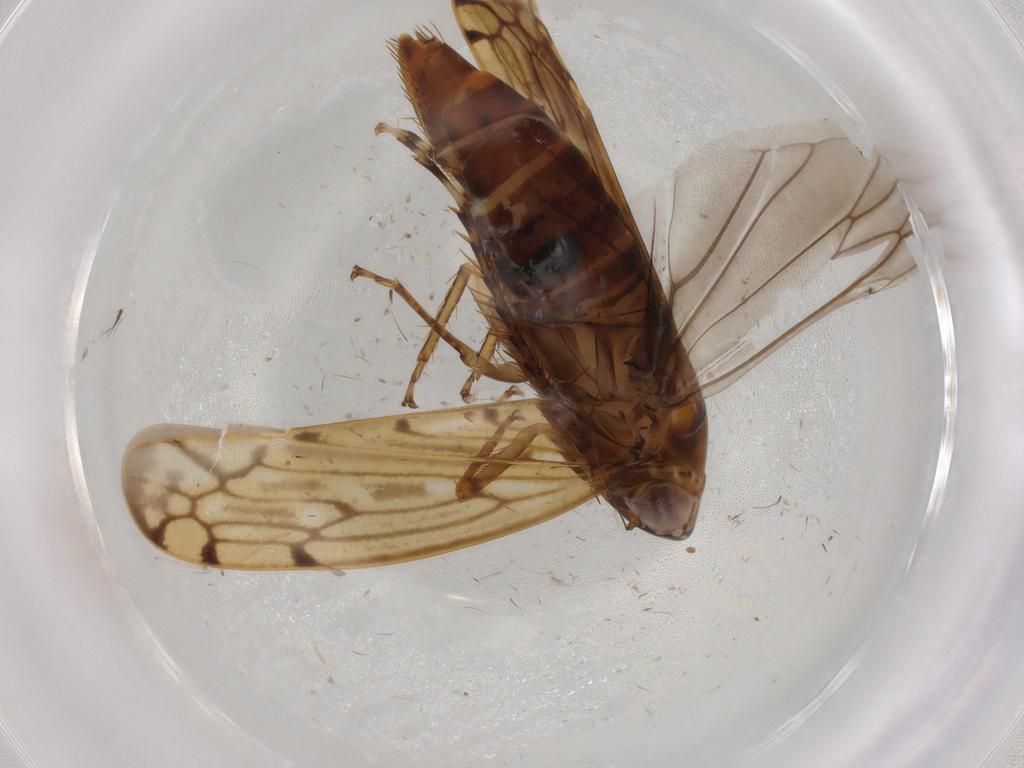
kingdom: Animalia
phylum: Arthropoda
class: Insecta
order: Hemiptera
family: Cicadellidae
